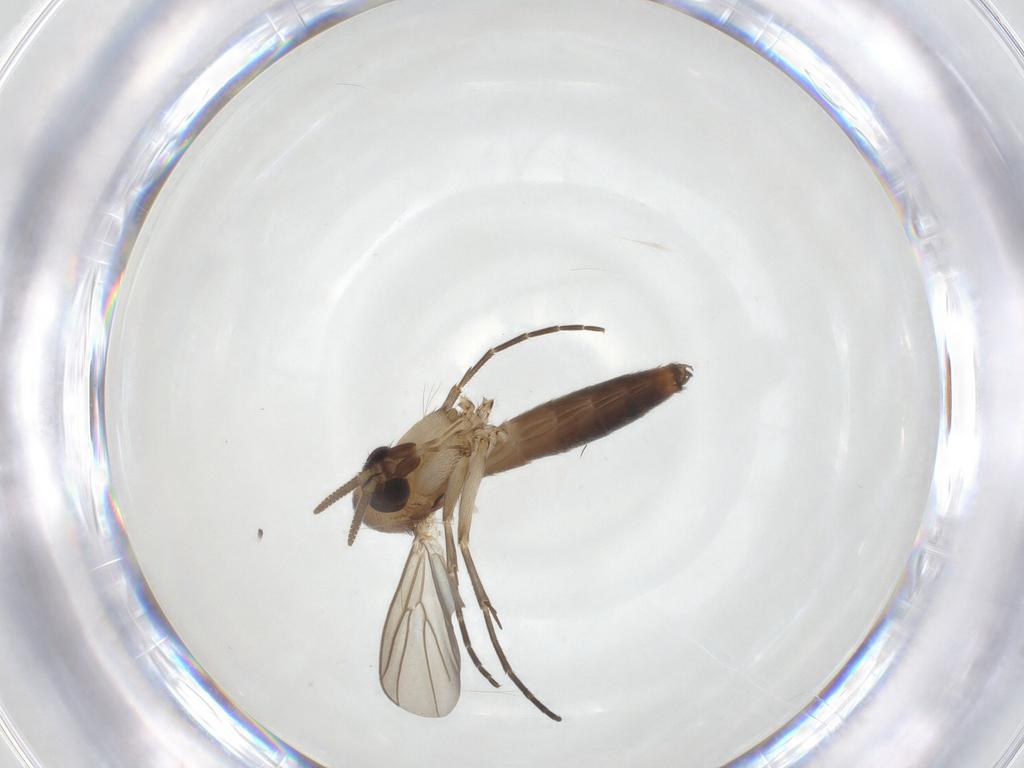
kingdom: Animalia
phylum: Arthropoda
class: Insecta
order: Diptera
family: Mycetophilidae
